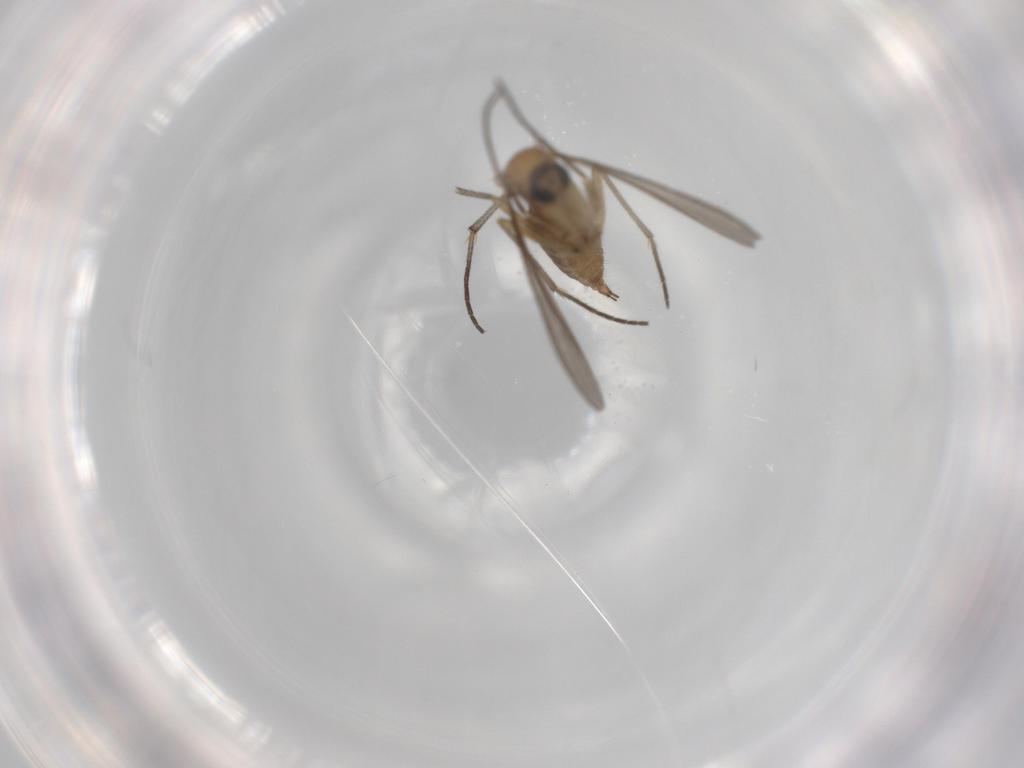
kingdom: Animalia
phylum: Arthropoda
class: Insecta
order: Diptera
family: Sciaridae
